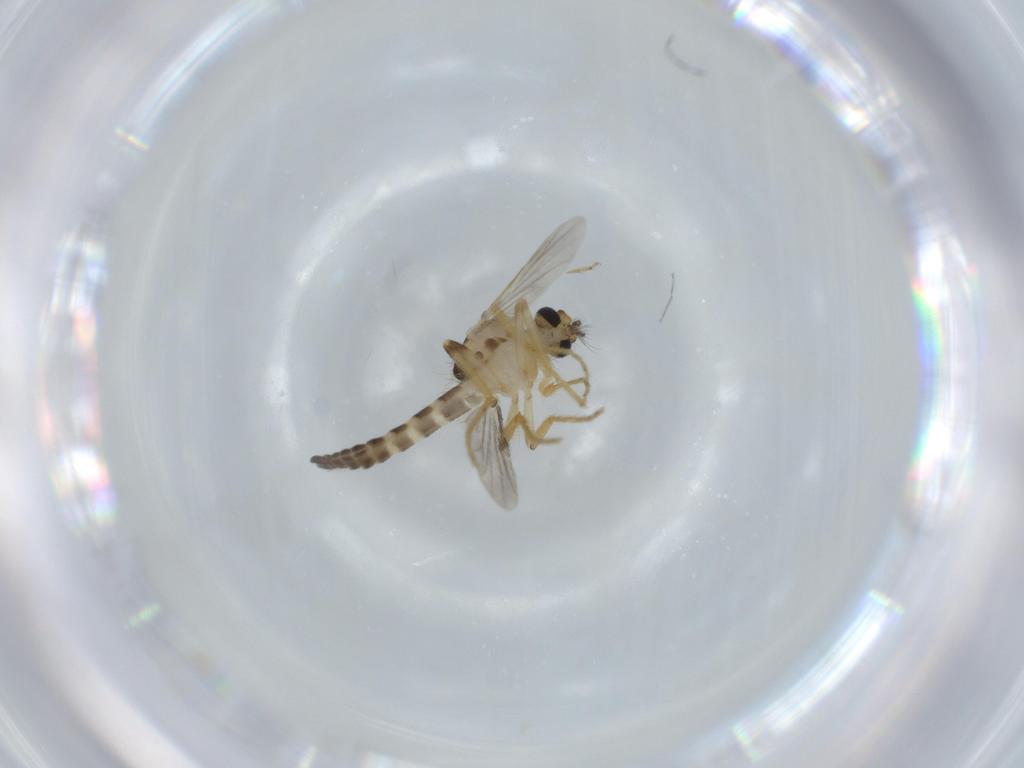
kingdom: Animalia
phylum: Arthropoda
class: Insecta
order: Diptera
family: Ceratopogonidae
